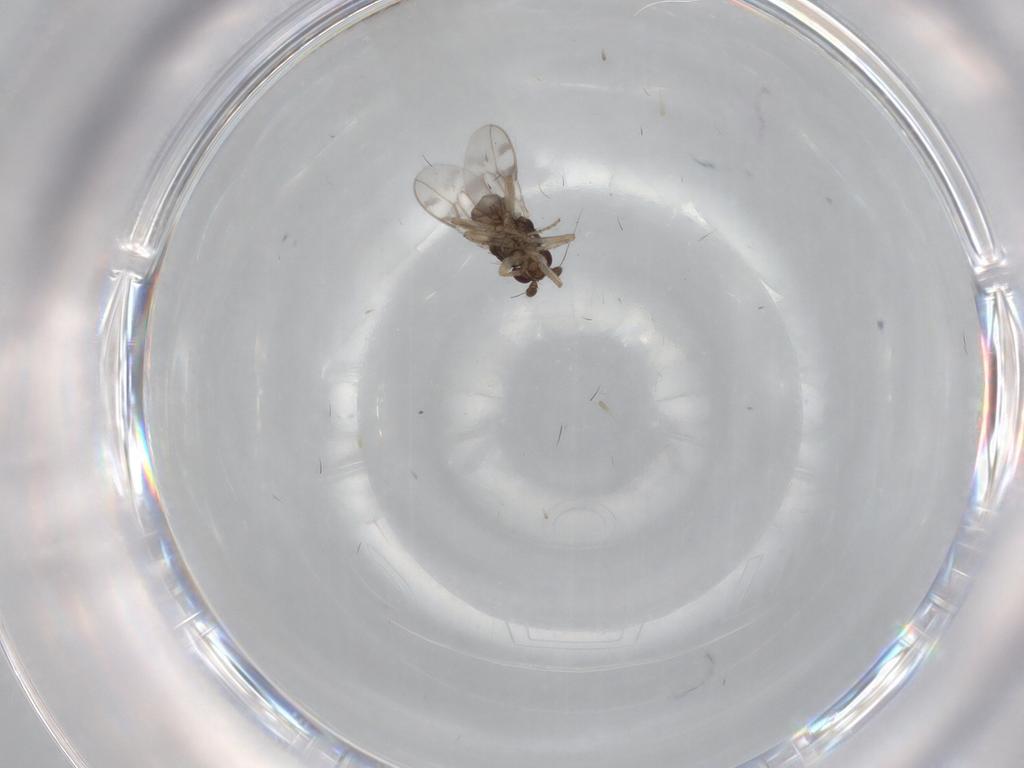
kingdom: Animalia
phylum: Arthropoda
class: Insecta
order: Diptera
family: Sphaeroceridae
